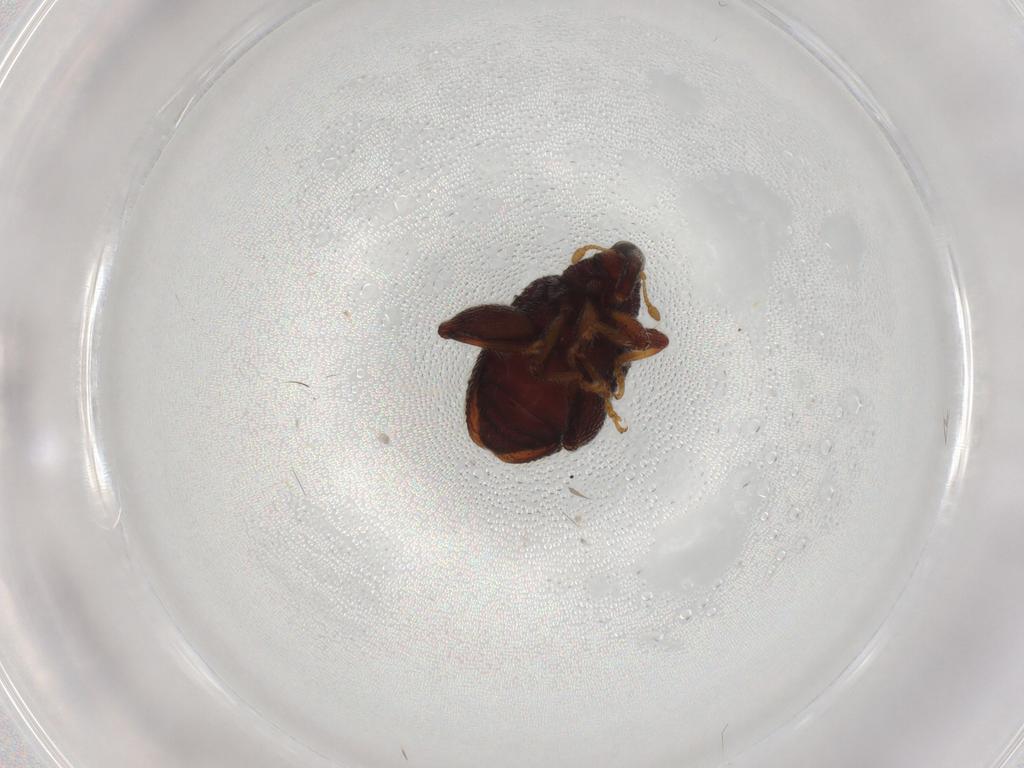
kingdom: Animalia
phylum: Arthropoda
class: Insecta
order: Coleoptera
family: Anthribidae
